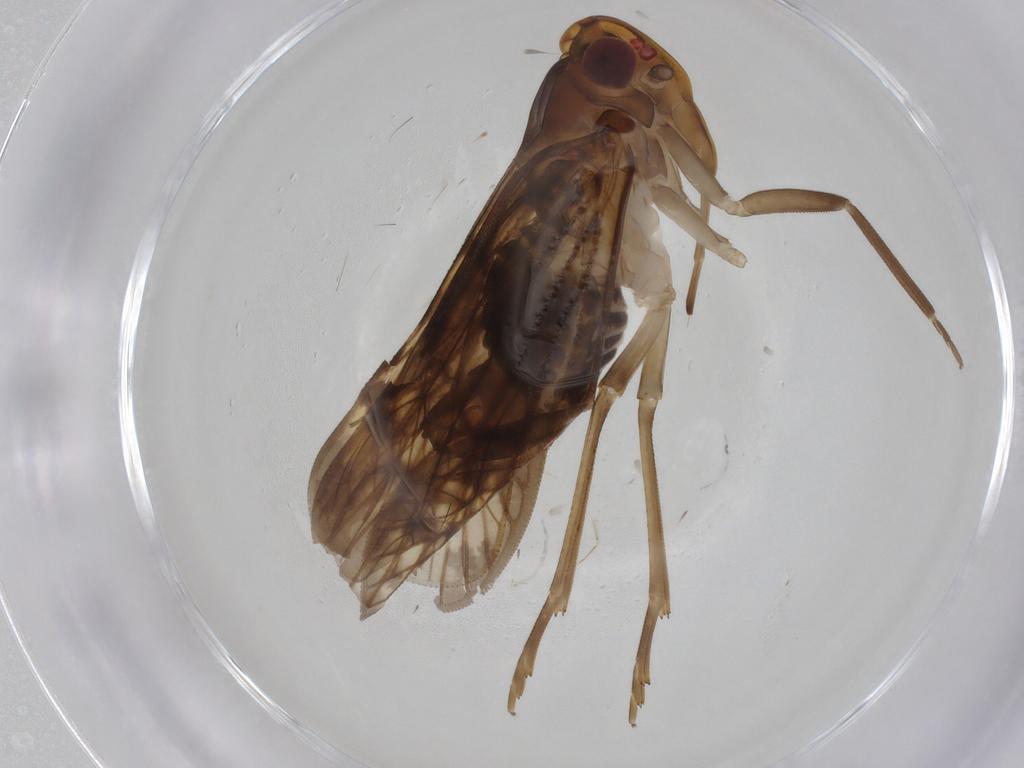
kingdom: Animalia
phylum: Arthropoda
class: Insecta
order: Hemiptera
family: Cixiidae
